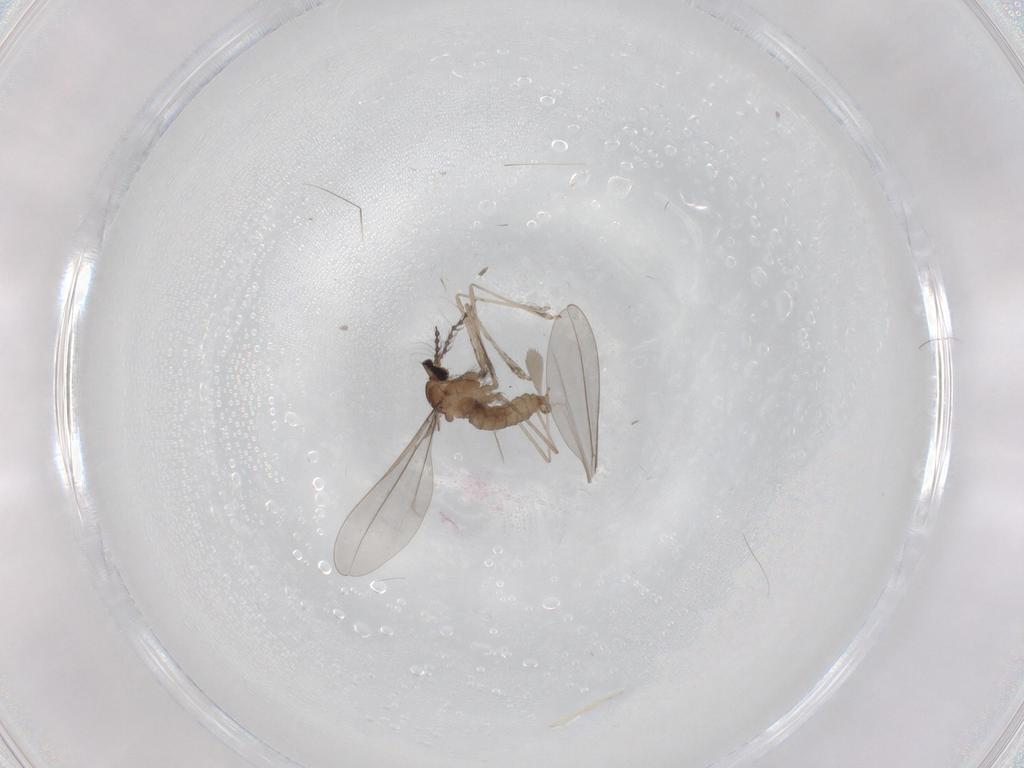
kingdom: Animalia
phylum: Arthropoda
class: Insecta
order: Diptera
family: Cecidomyiidae
